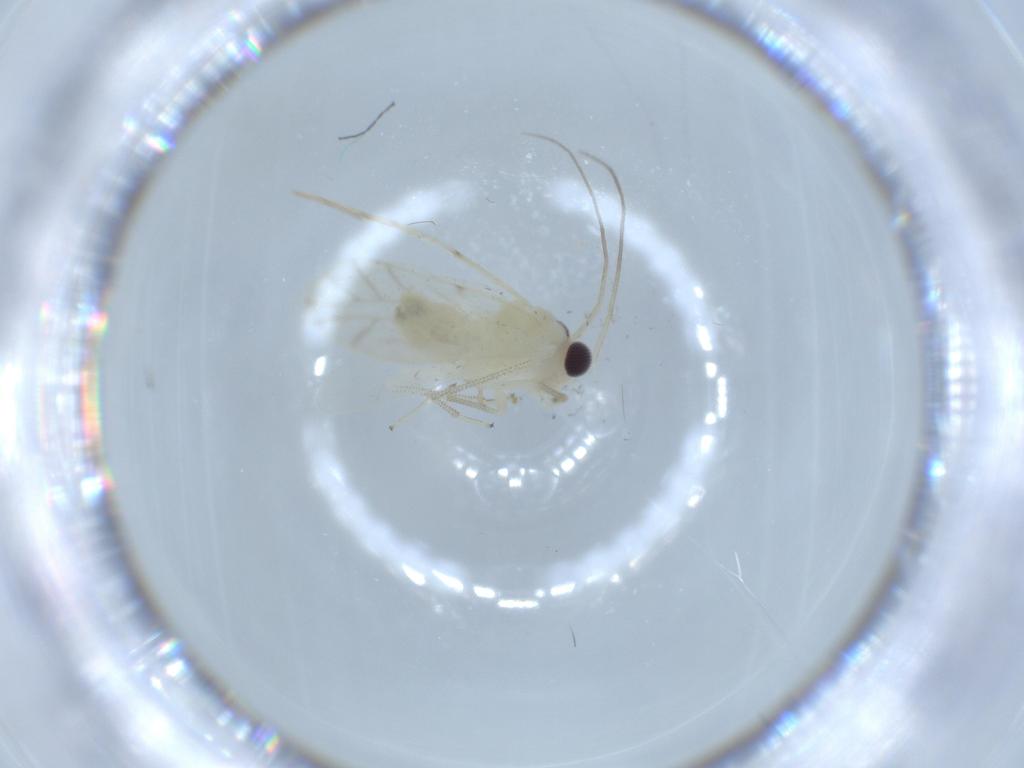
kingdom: Animalia
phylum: Arthropoda
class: Insecta
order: Psocodea
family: Caeciliusidae
